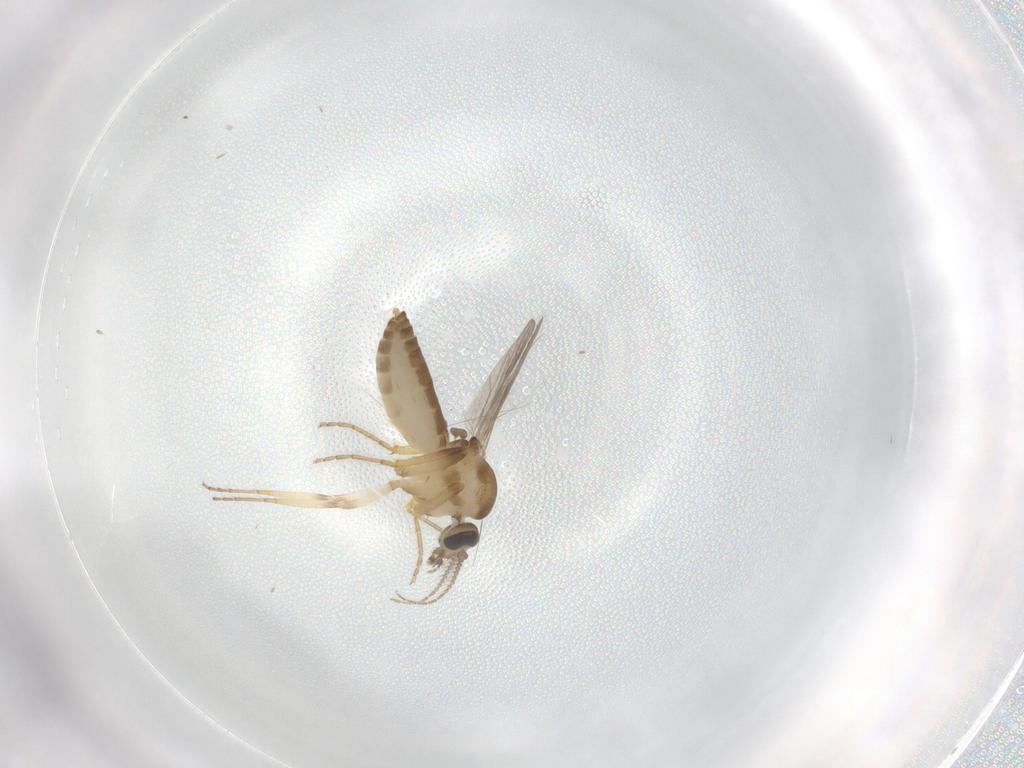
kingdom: Animalia
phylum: Arthropoda
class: Insecta
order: Diptera
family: Ceratopogonidae
